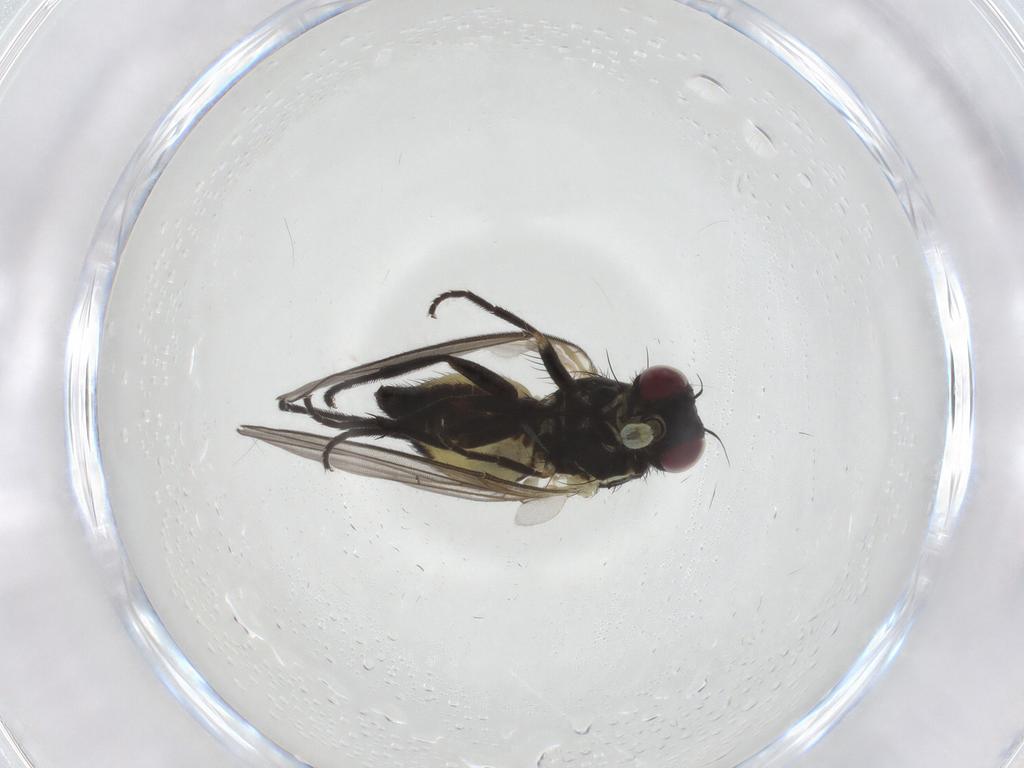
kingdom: Animalia
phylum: Arthropoda
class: Insecta
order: Diptera
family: Agromyzidae
